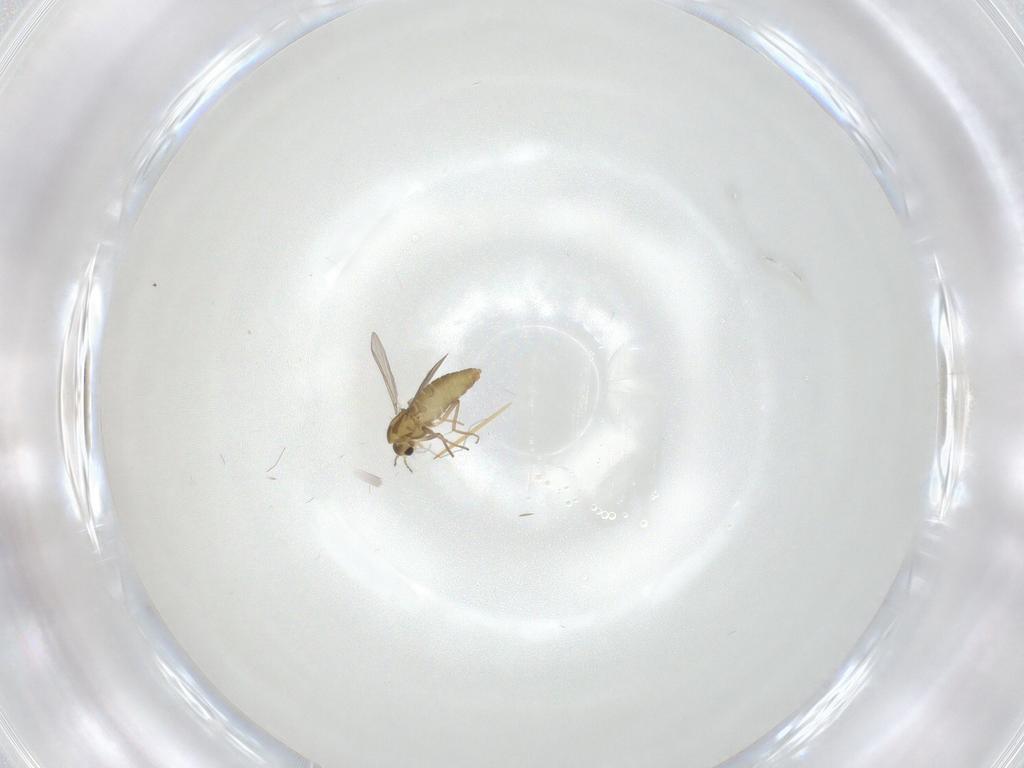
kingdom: Animalia
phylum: Arthropoda
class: Insecta
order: Diptera
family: Chironomidae
